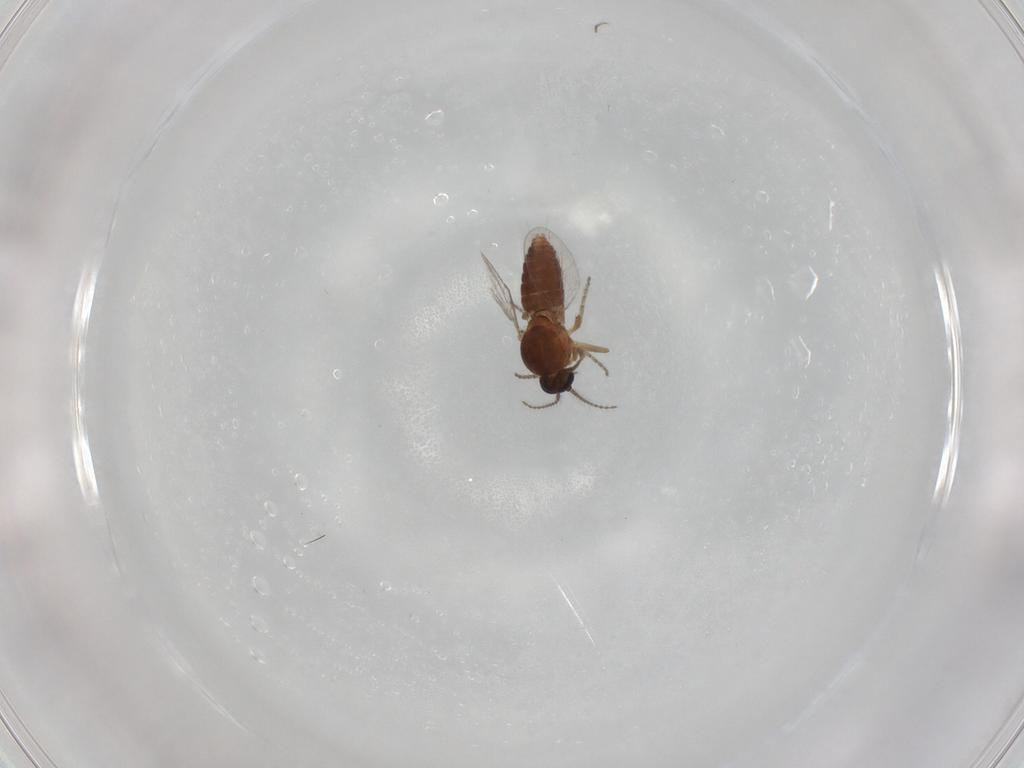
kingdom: Animalia
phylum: Arthropoda
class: Insecta
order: Diptera
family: Ceratopogonidae
